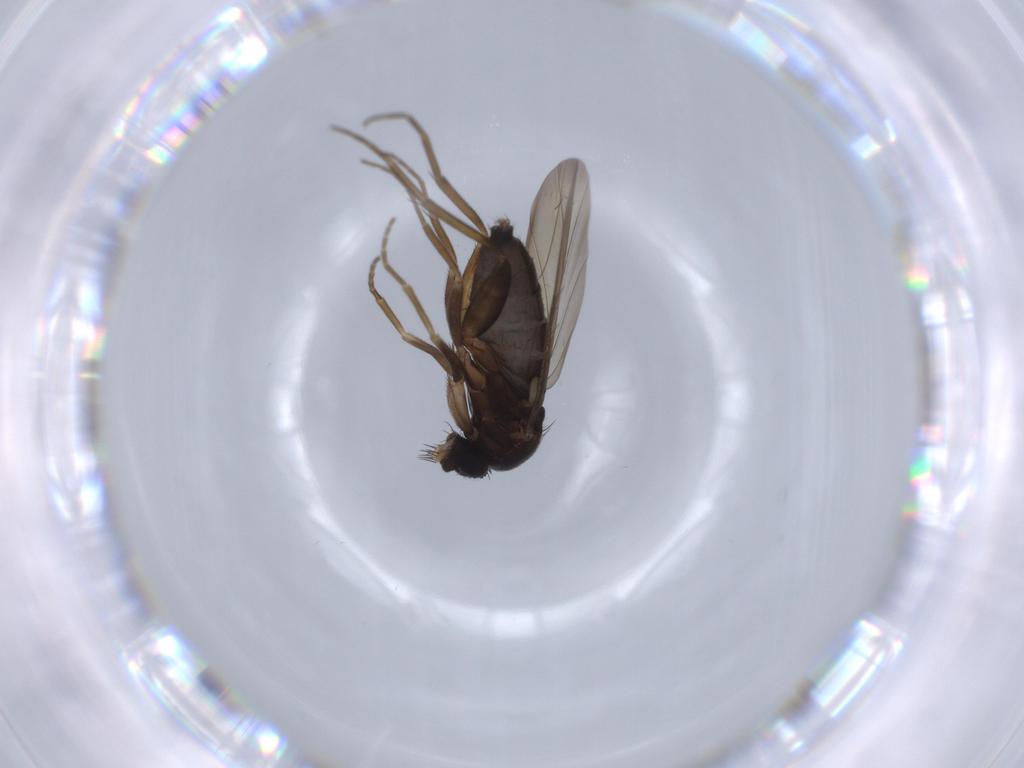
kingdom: Animalia
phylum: Arthropoda
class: Insecta
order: Diptera
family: Phoridae
